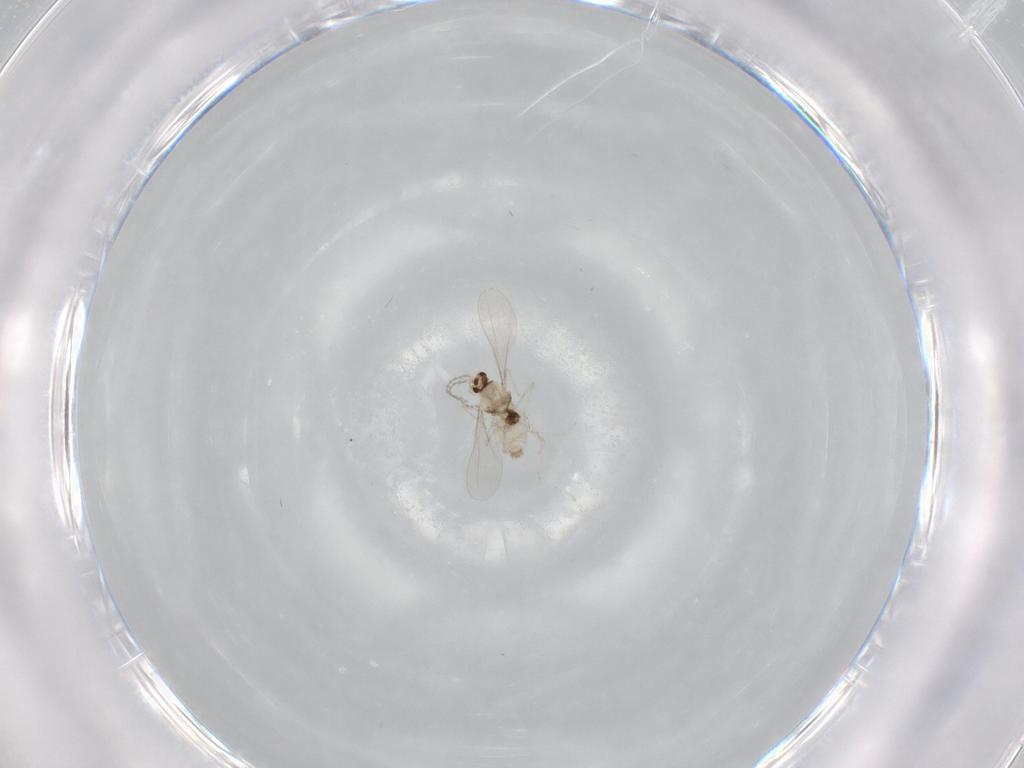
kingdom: Animalia
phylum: Arthropoda
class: Insecta
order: Diptera
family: Cecidomyiidae
